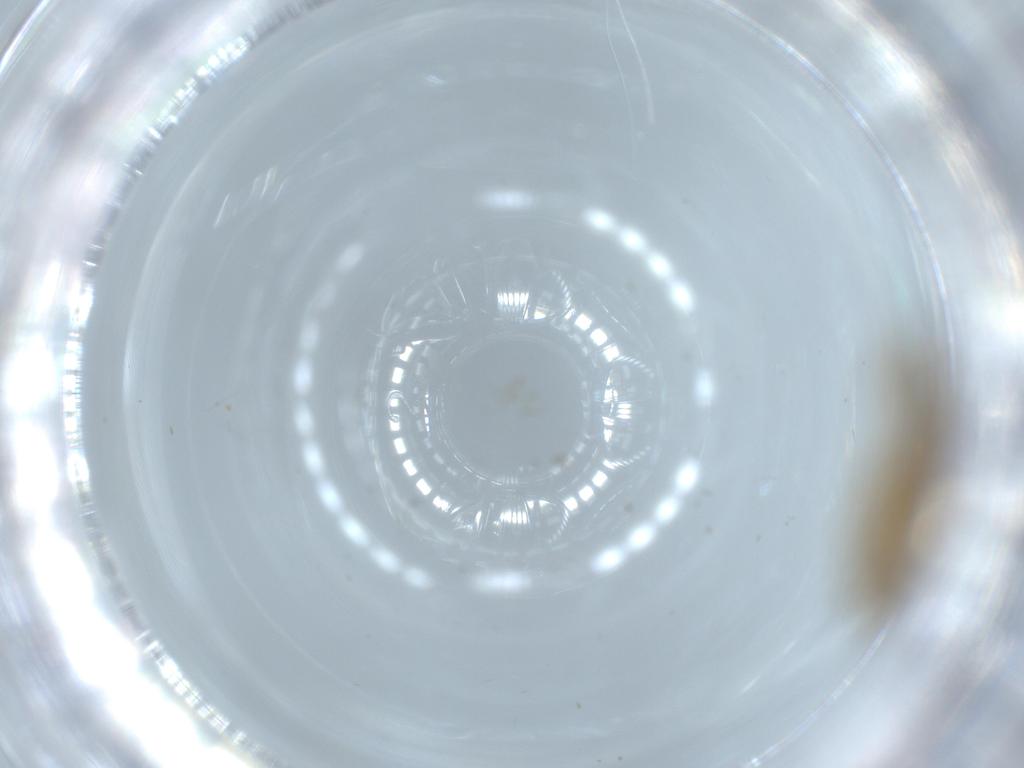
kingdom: Animalia
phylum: Arthropoda
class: Insecta
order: Lepidoptera
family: Tineidae
